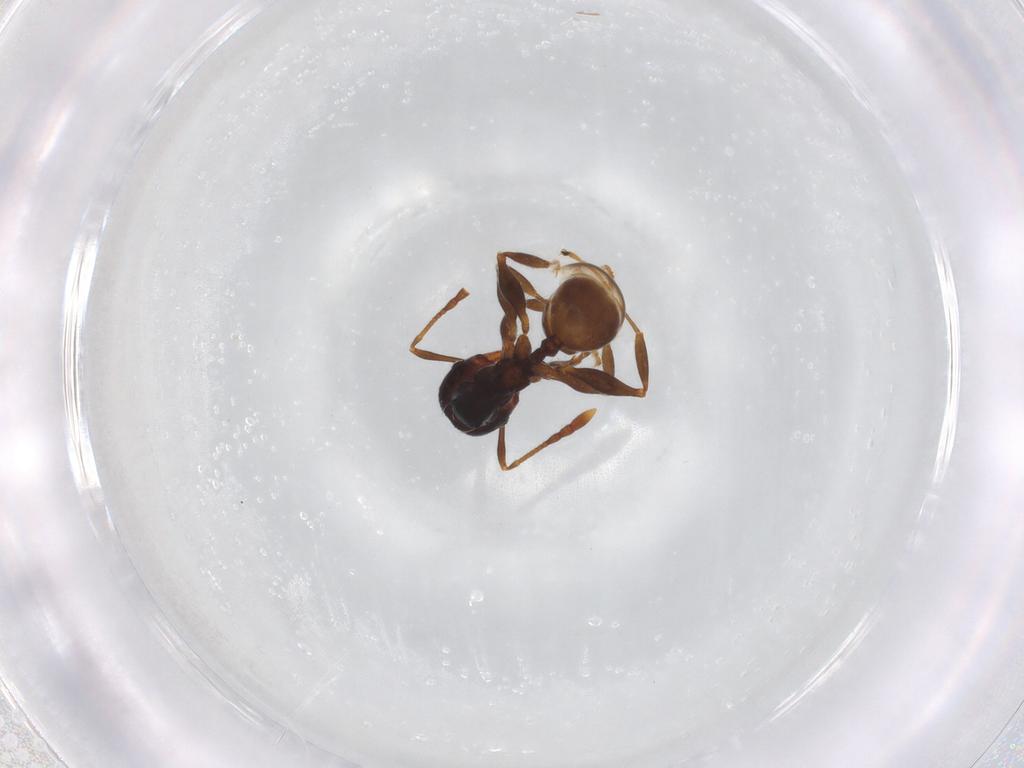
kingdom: Animalia
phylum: Arthropoda
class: Insecta
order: Hymenoptera
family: Formicidae
